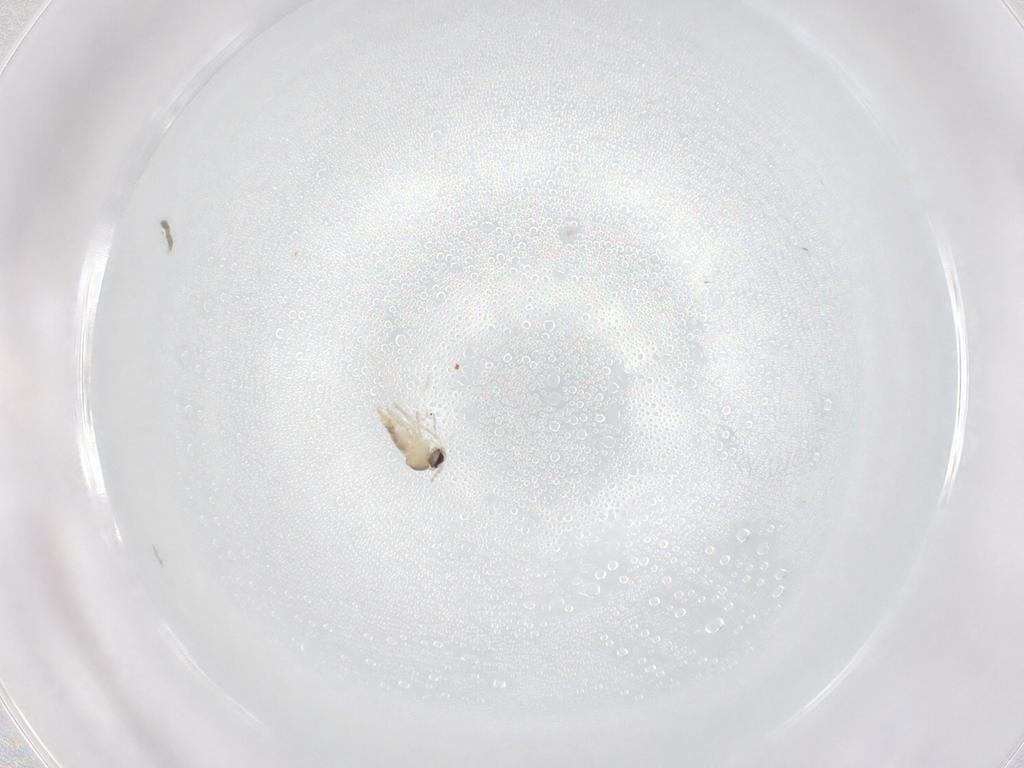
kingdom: Animalia
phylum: Arthropoda
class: Insecta
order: Diptera
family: Cecidomyiidae
